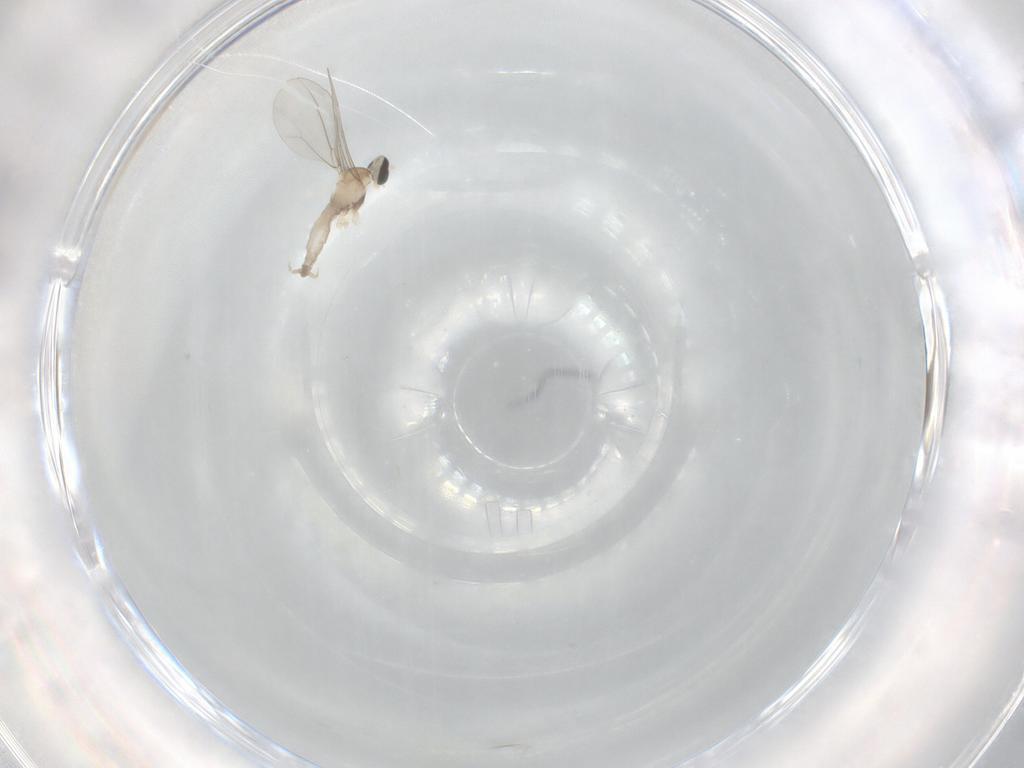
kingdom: Animalia
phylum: Arthropoda
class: Insecta
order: Diptera
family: Cecidomyiidae
